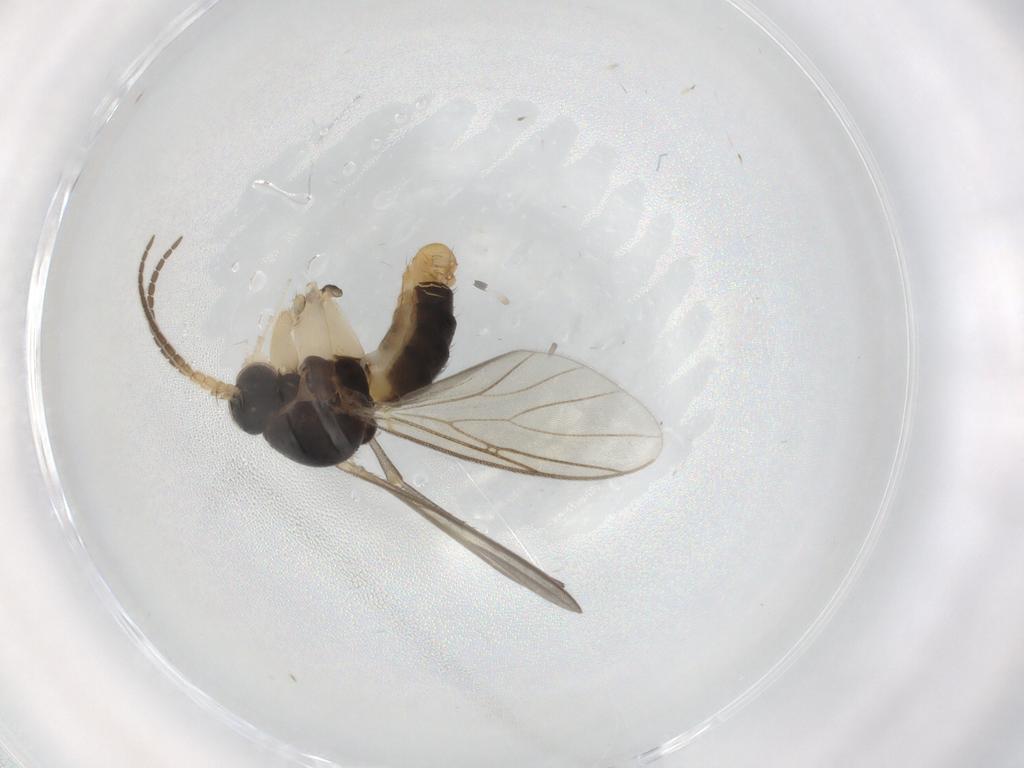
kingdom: Animalia
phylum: Arthropoda
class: Insecta
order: Diptera
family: Mycetophilidae
